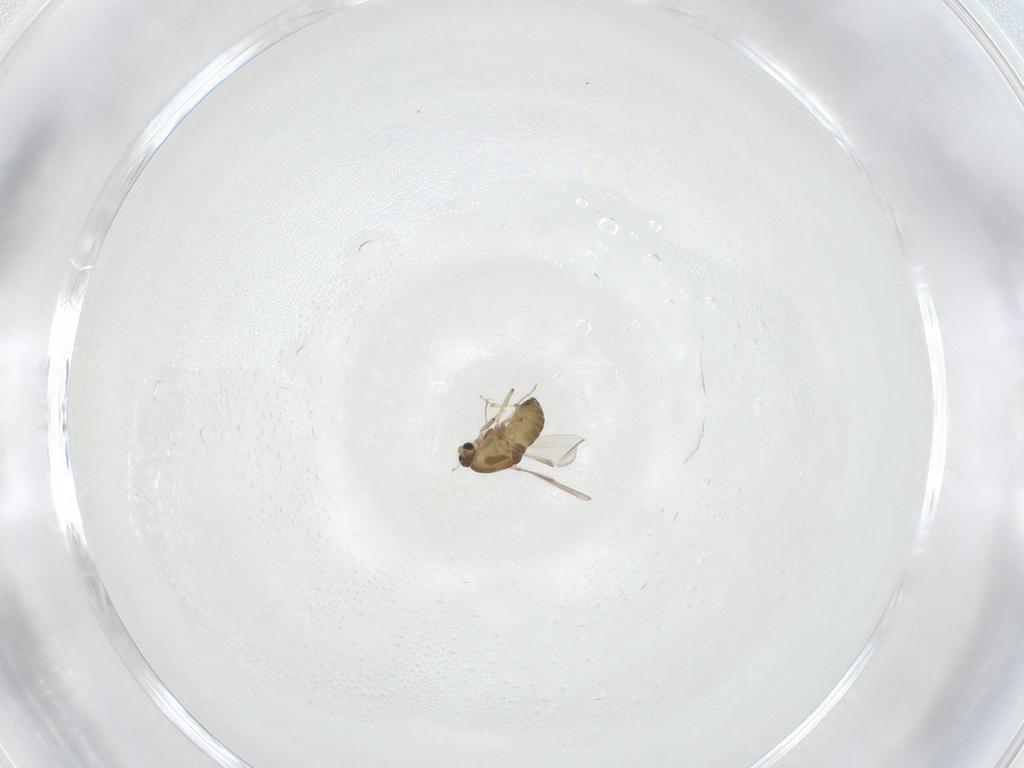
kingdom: Animalia
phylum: Arthropoda
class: Insecta
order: Diptera
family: Chironomidae
